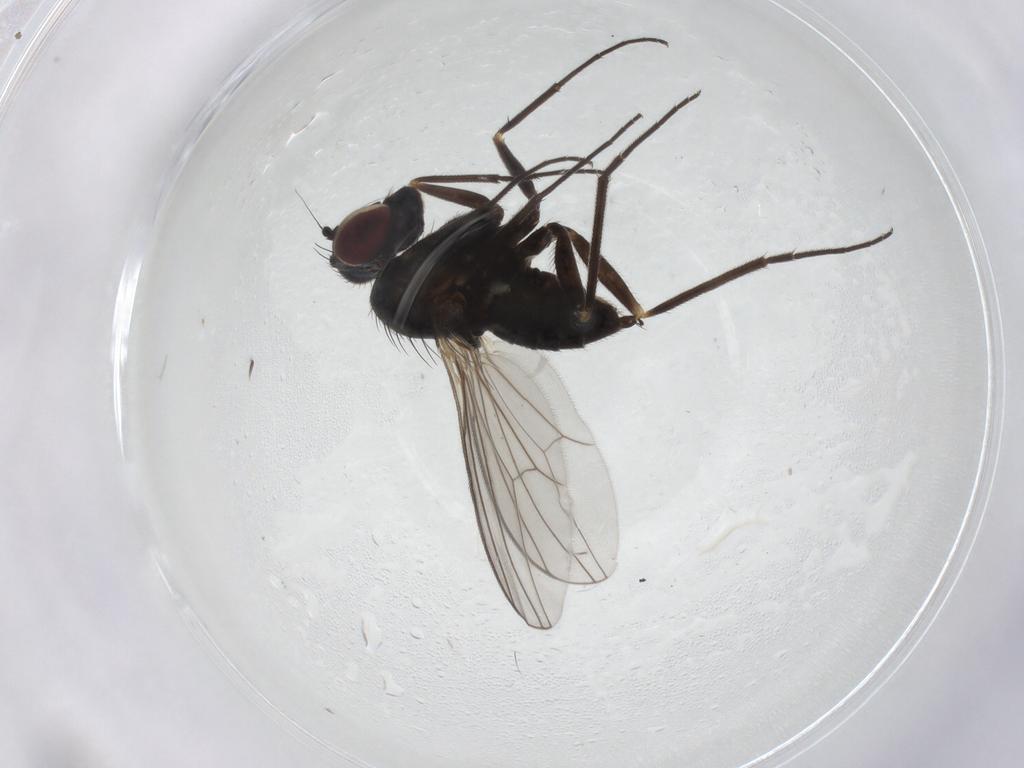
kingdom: Animalia
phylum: Arthropoda
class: Insecta
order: Diptera
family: Dolichopodidae
